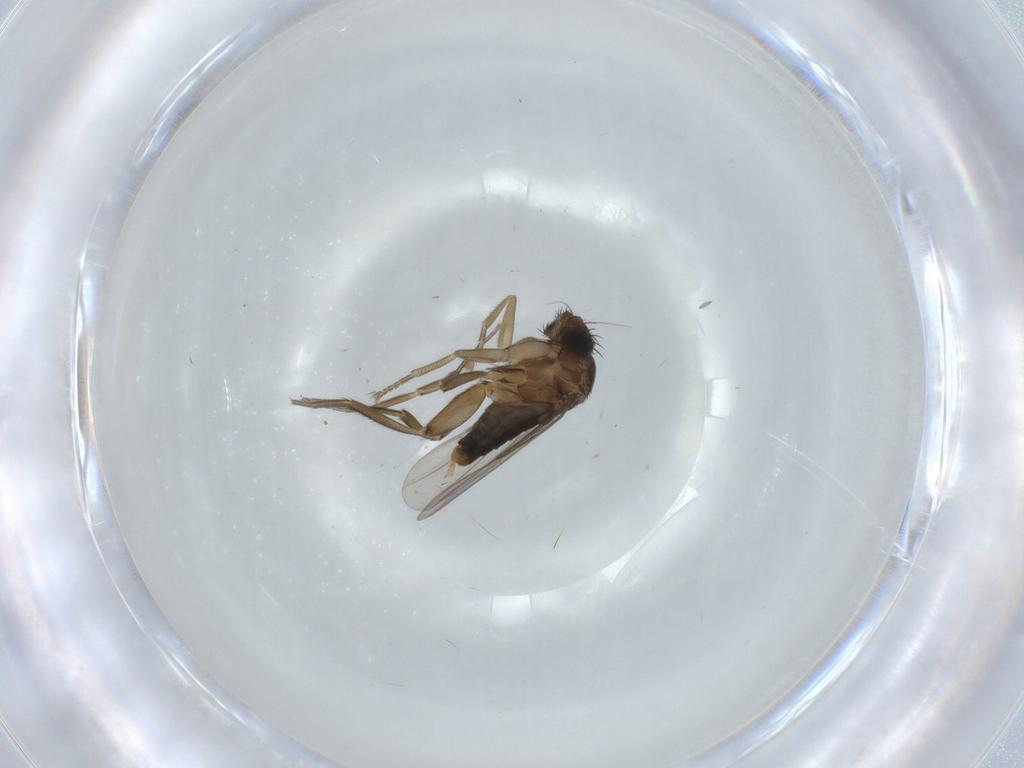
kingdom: Animalia
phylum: Arthropoda
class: Insecta
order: Diptera
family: Phoridae
